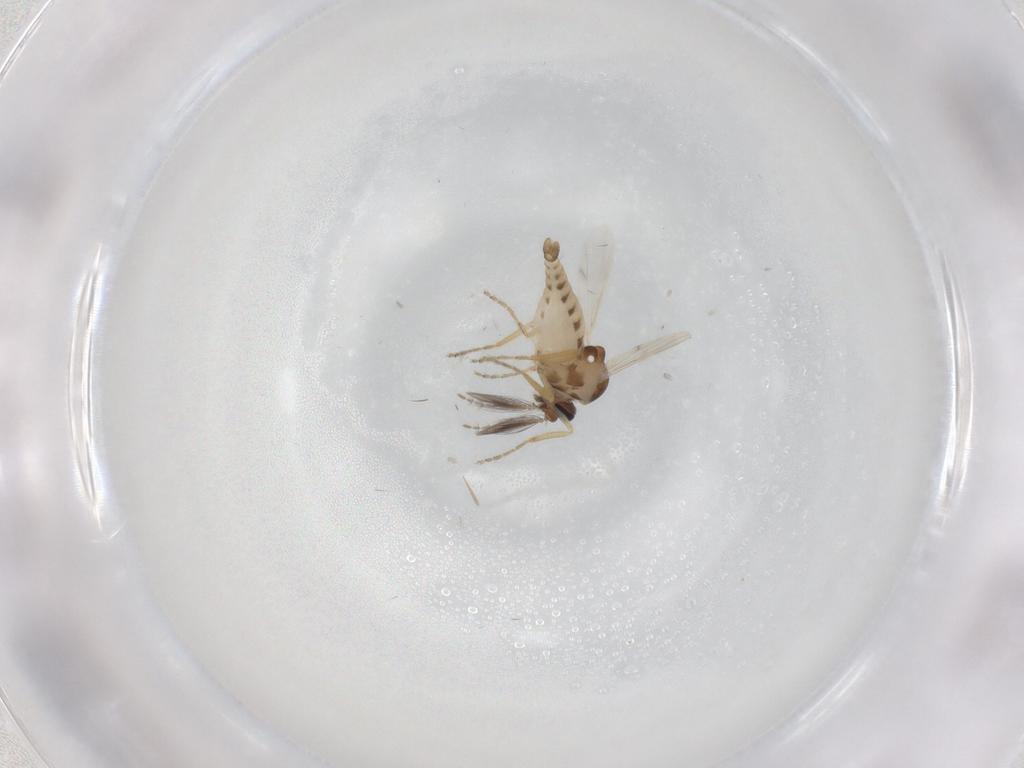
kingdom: Animalia
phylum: Arthropoda
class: Insecta
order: Diptera
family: Ceratopogonidae
